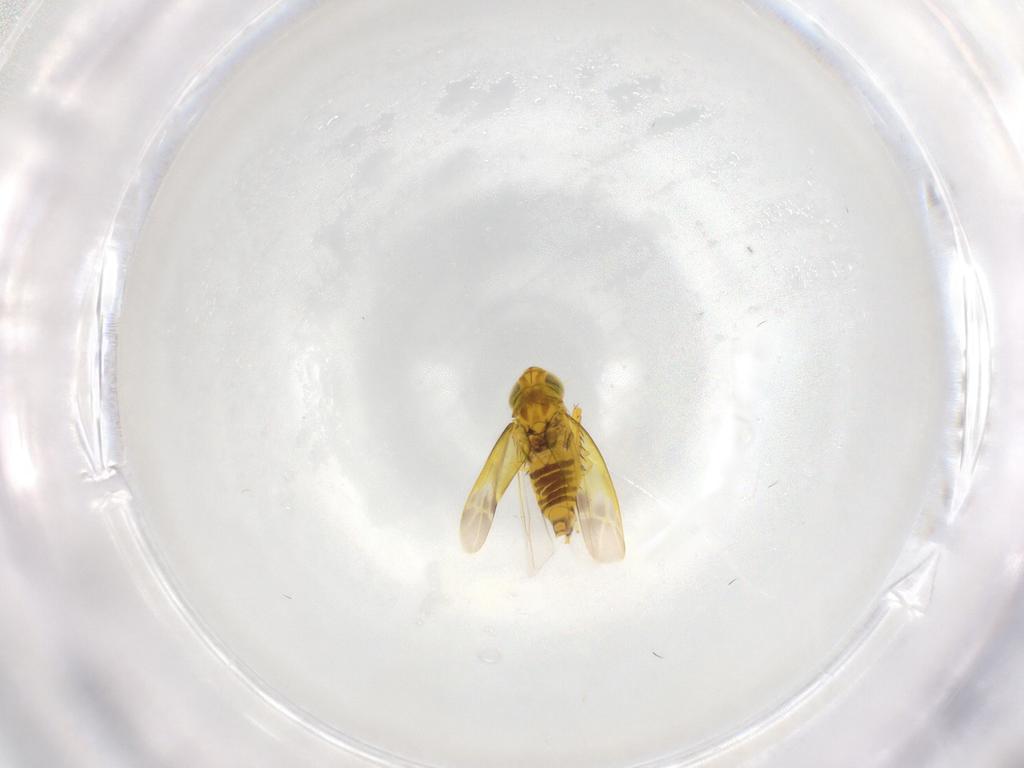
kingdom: Animalia
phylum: Arthropoda
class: Insecta
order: Hemiptera
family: Cicadellidae
